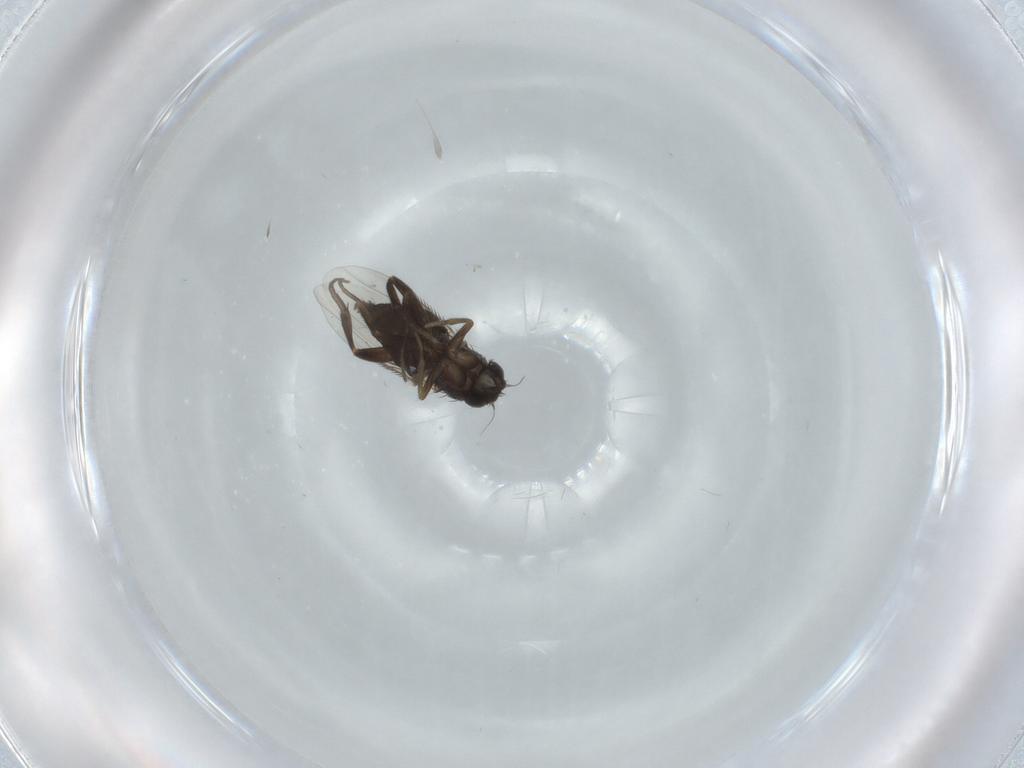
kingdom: Animalia
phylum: Arthropoda
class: Insecta
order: Diptera
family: Phoridae
